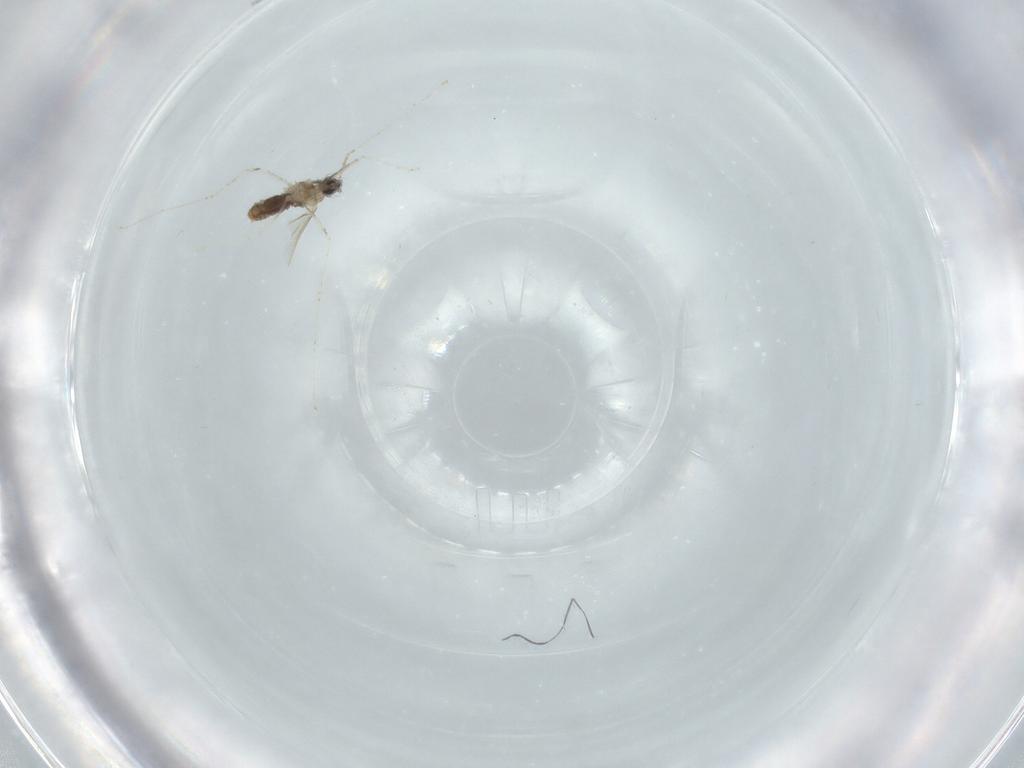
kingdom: Animalia
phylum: Arthropoda
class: Insecta
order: Diptera
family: Cecidomyiidae
